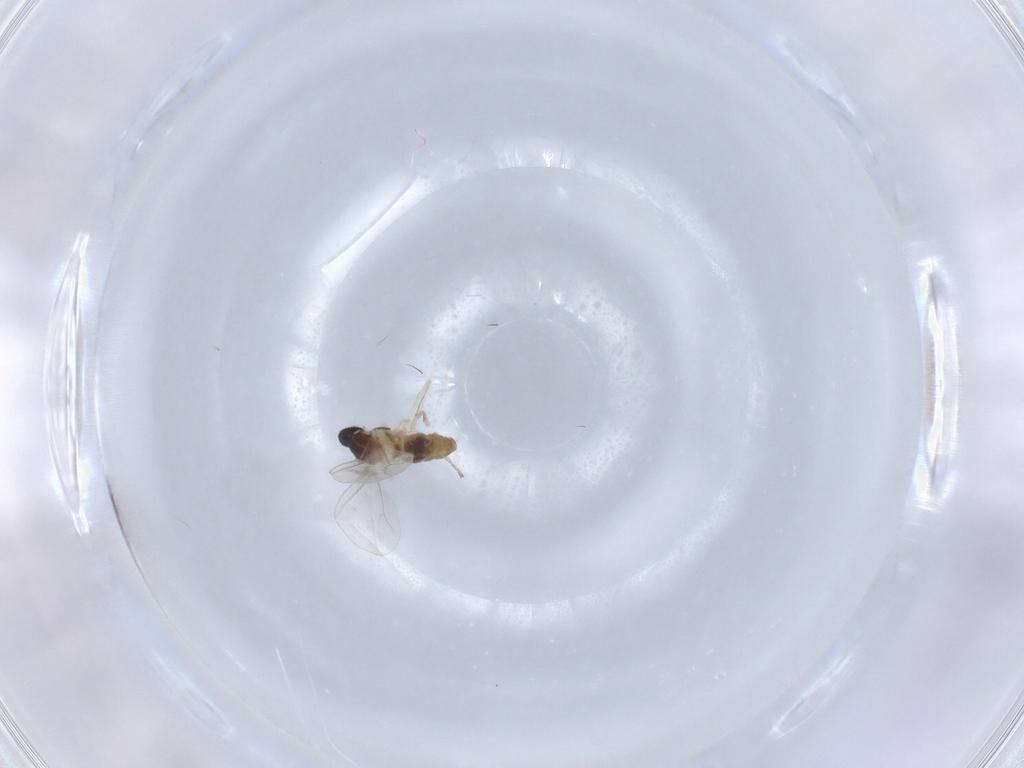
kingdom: Animalia
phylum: Arthropoda
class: Insecta
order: Diptera
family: Cecidomyiidae
